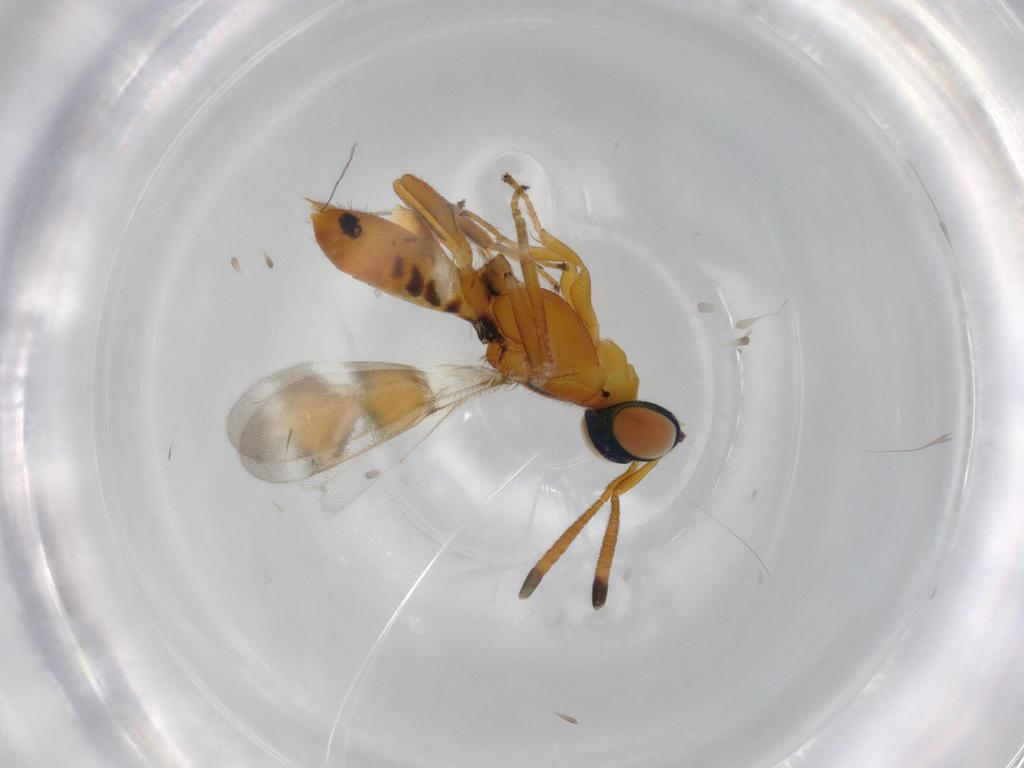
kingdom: Animalia
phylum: Arthropoda
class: Insecta
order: Hymenoptera
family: Eupelmidae
